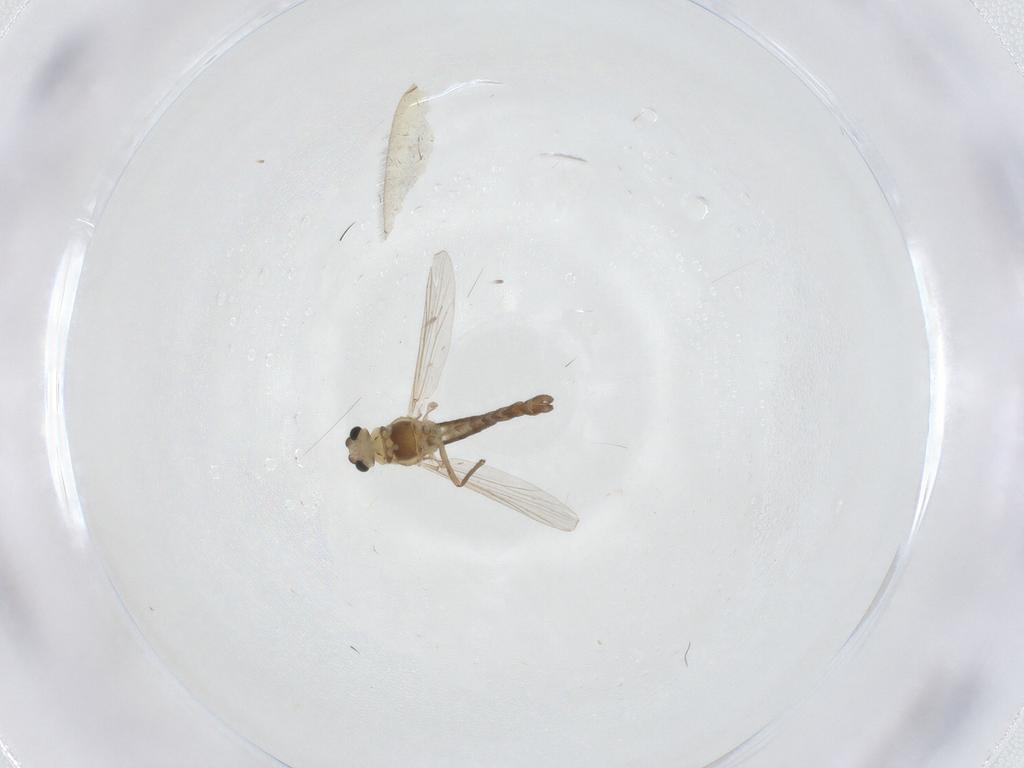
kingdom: Animalia
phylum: Arthropoda
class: Insecta
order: Diptera
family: Chironomidae
